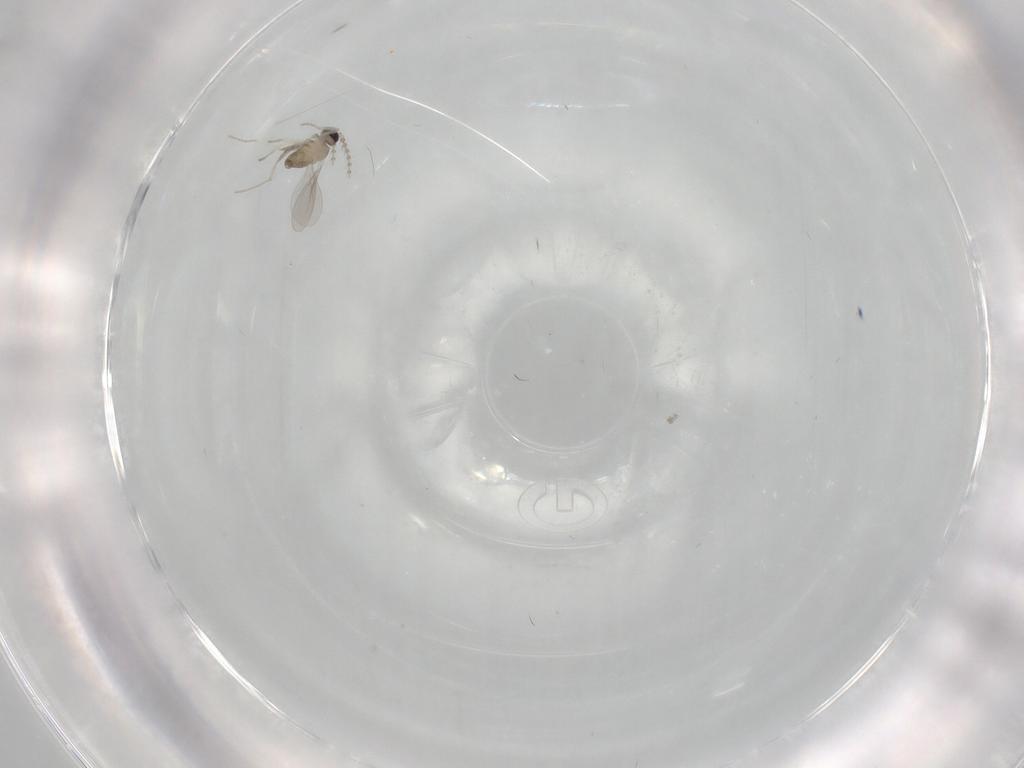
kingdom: Animalia
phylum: Arthropoda
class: Insecta
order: Diptera
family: Cecidomyiidae
